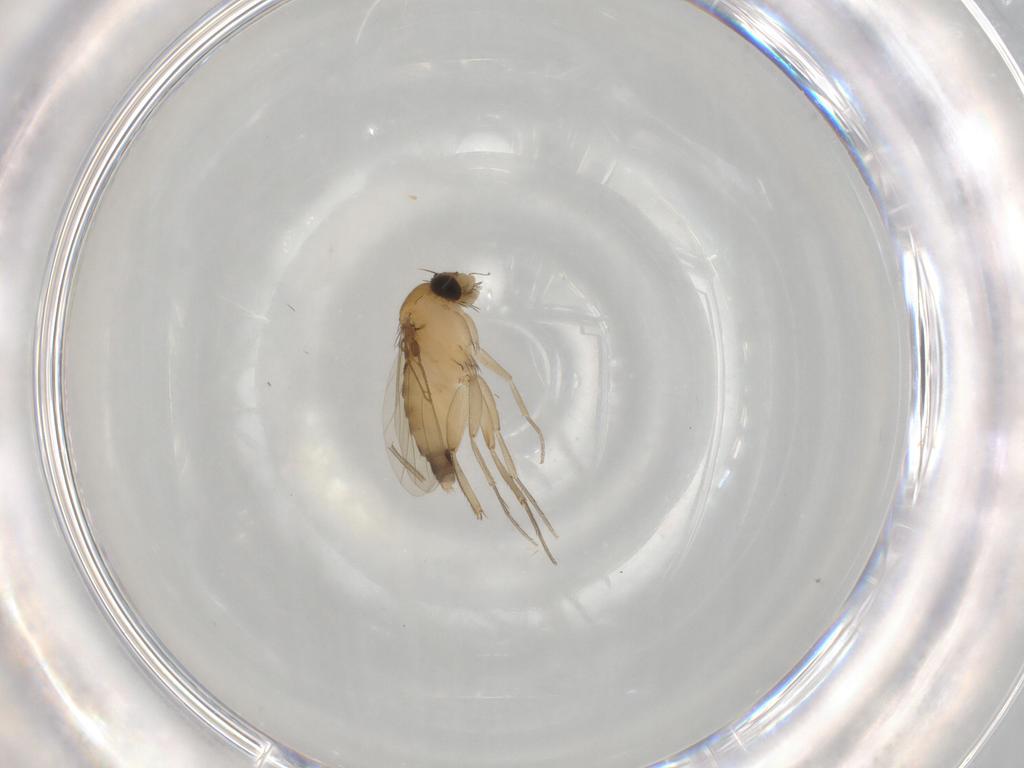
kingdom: Animalia
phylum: Arthropoda
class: Insecta
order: Diptera
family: Phoridae
